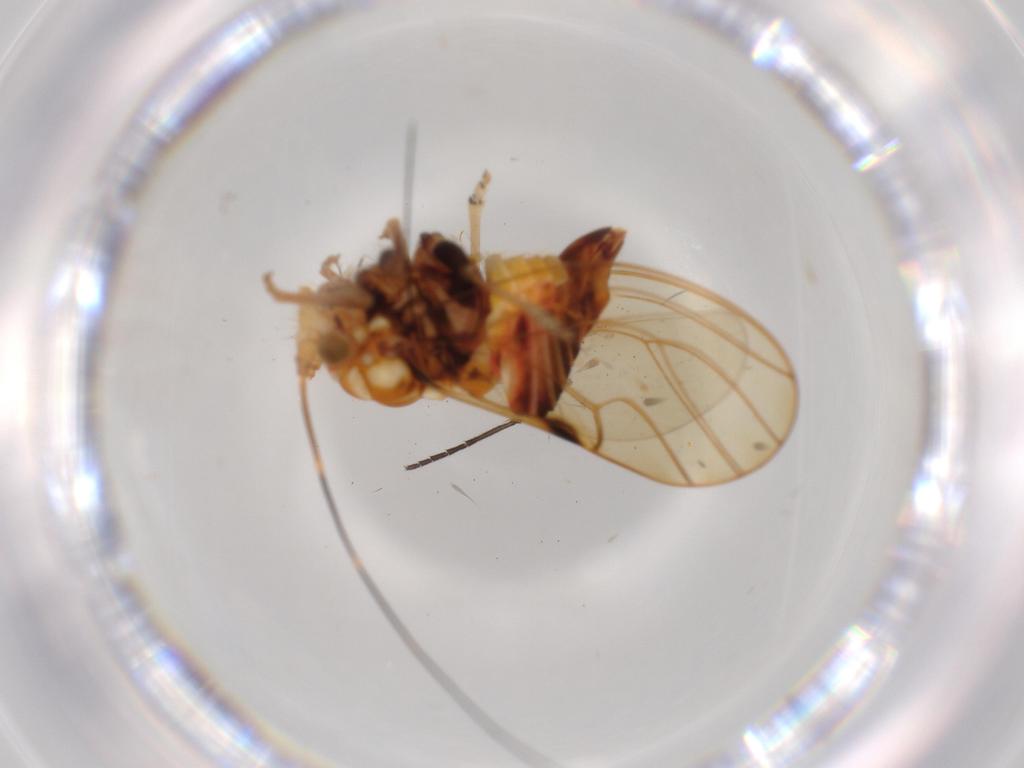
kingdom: Animalia
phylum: Arthropoda
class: Insecta
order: Hemiptera
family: Psyllidae
